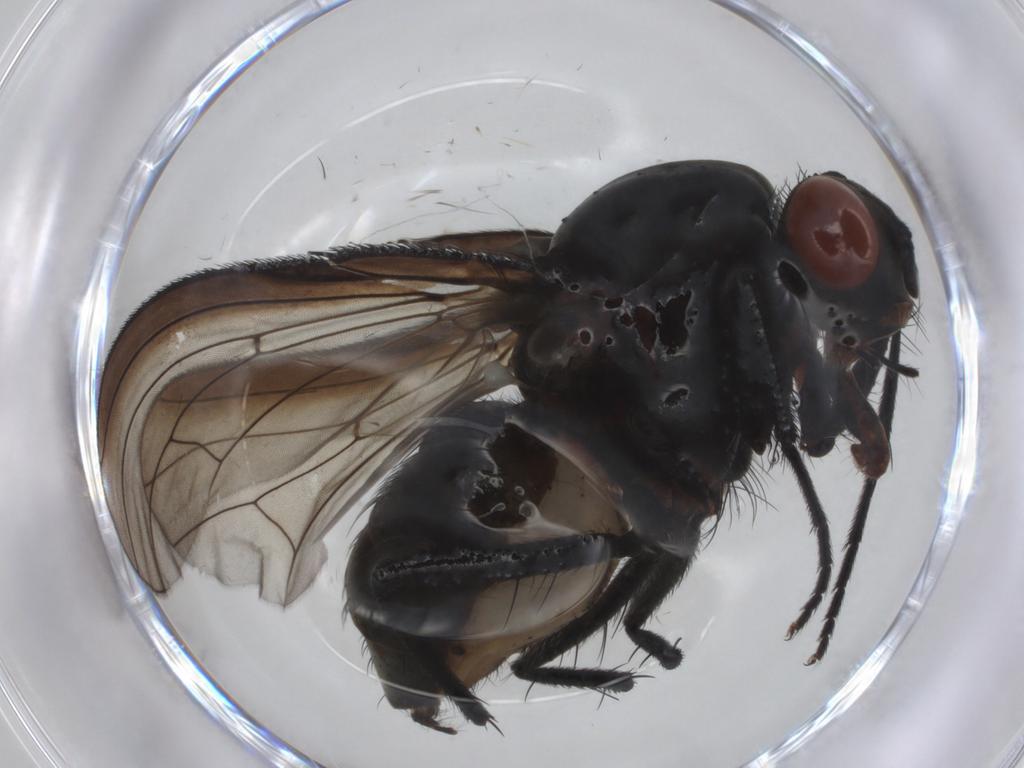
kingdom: Animalia
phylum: Arthropoda
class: Insecta
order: Diptera
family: Anthomyiidae
